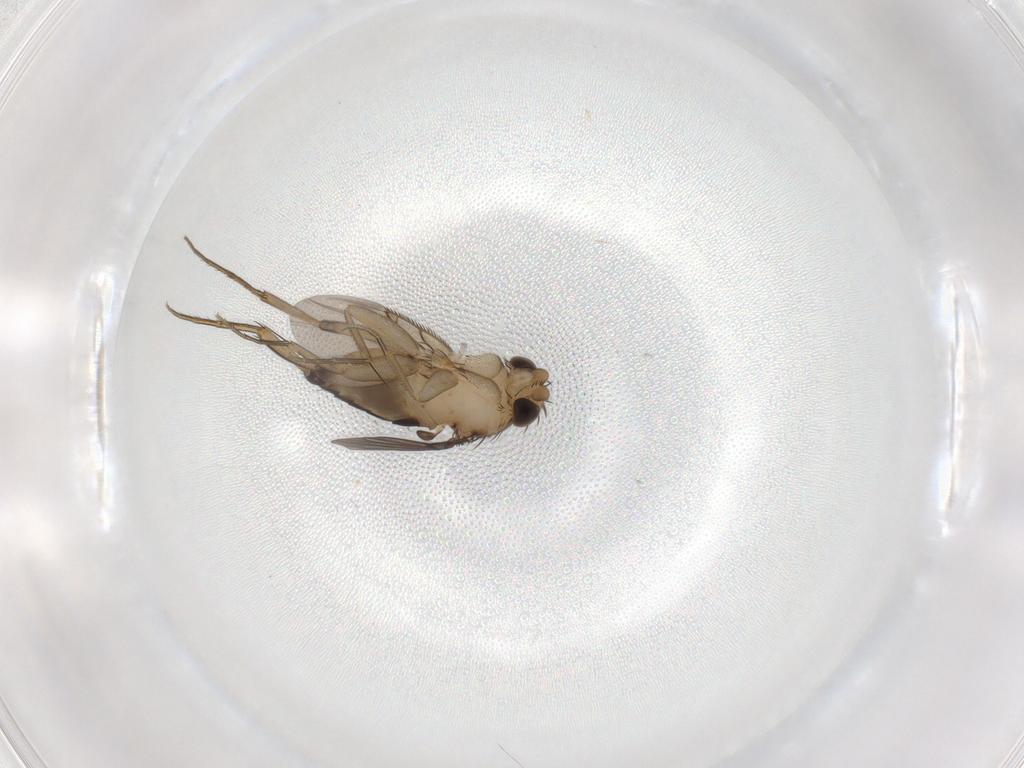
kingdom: Animalia
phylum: Arthropoda
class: Insecta
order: Diptera
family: Phoridae
